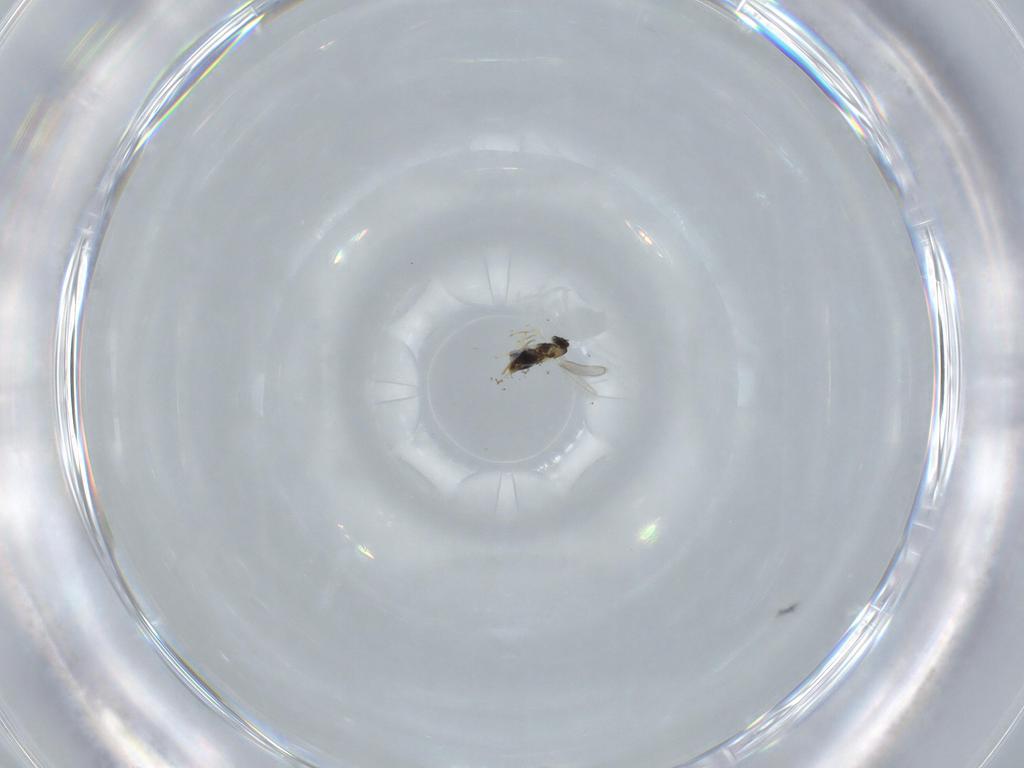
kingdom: Animalia
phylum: Arthropoda
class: Insecta
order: Hymenoptera
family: Aphelinidae
